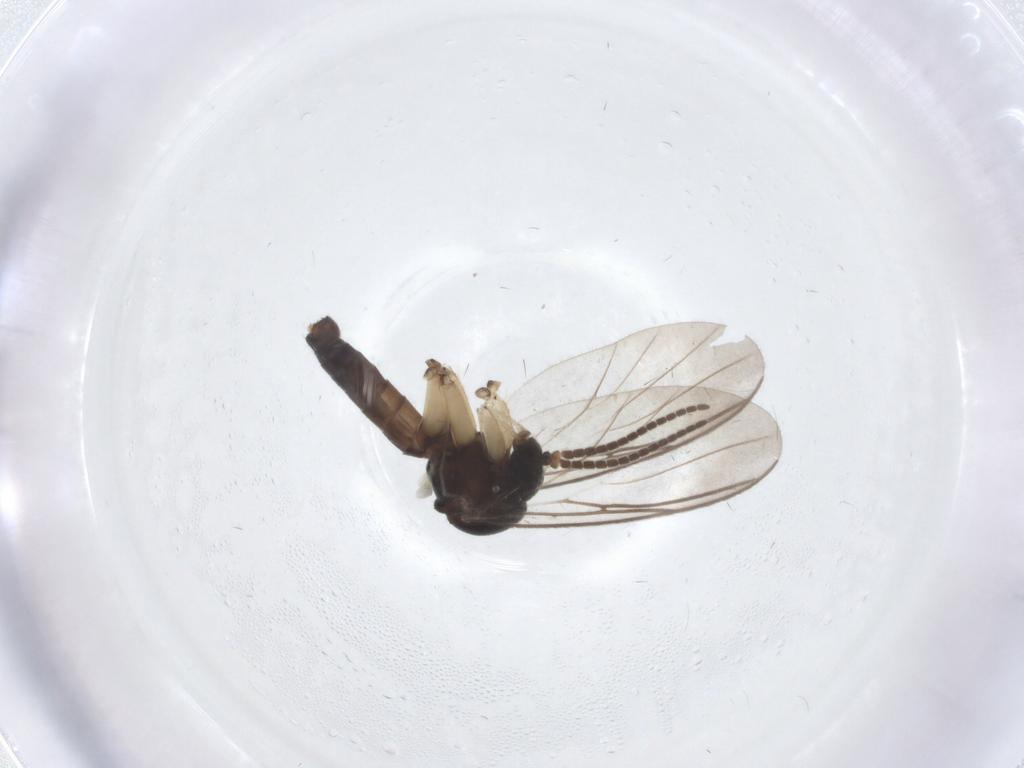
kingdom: Animalia
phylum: Arthropoda
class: Insecta
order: Diptera
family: Mycetophilidae
